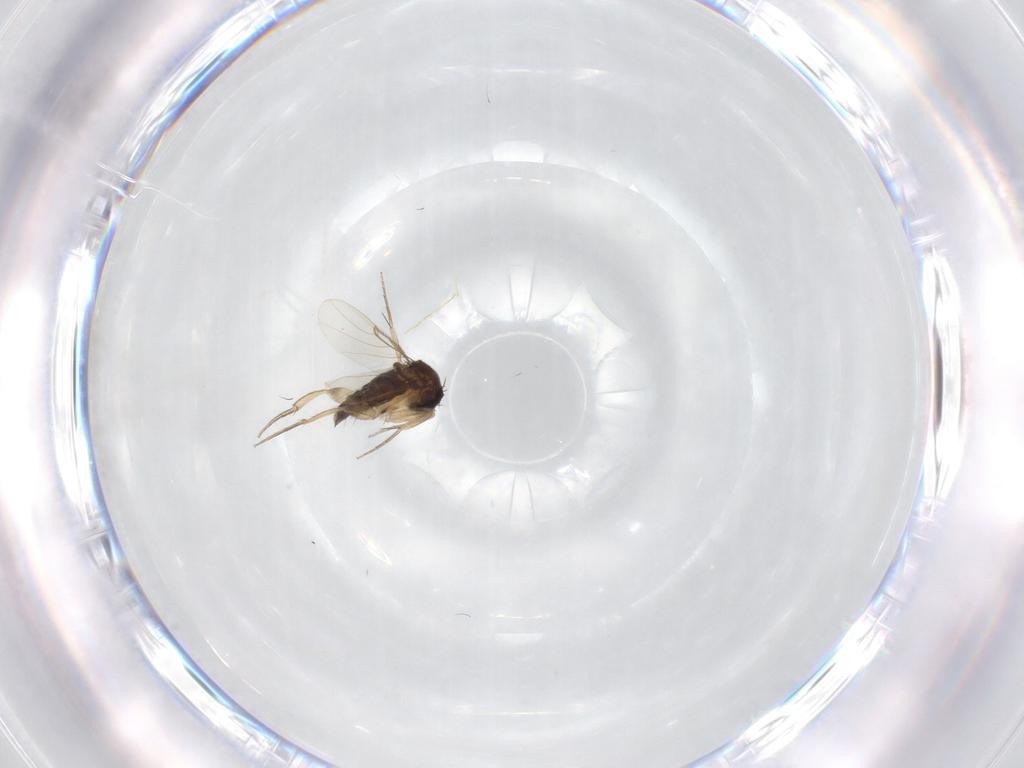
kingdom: Animalia
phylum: Arthropoda
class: Insecta
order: Diptera
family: Phoridae
